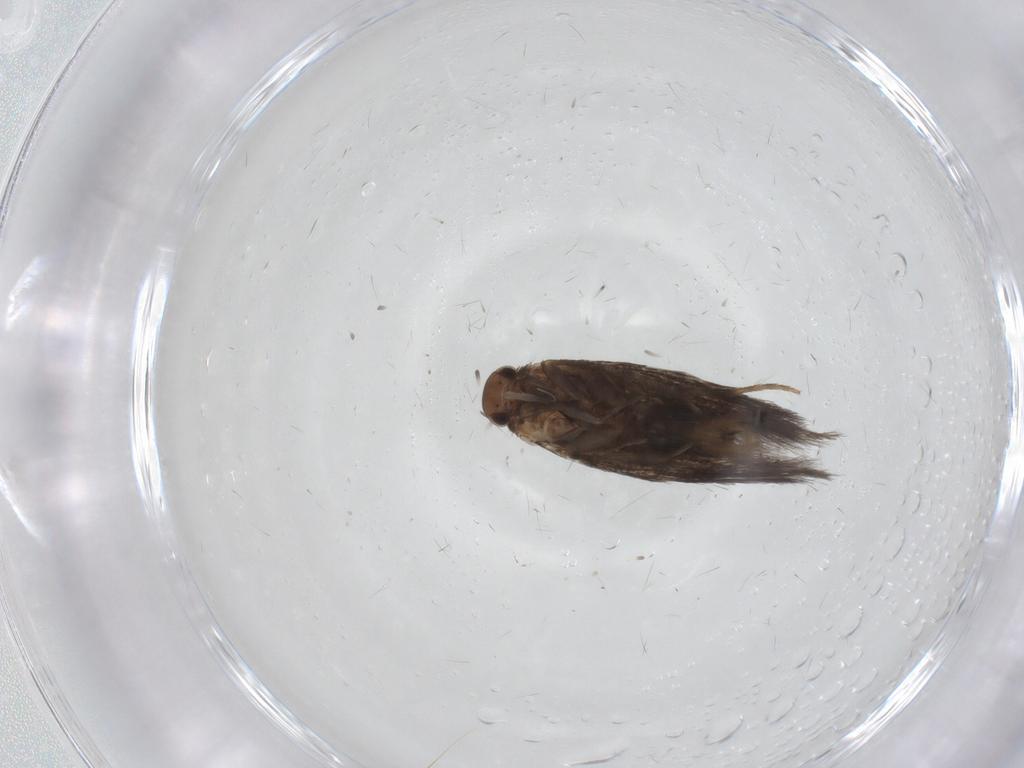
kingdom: Animalia
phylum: Arthropoda
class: Insecta
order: Lepidoptera
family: Elachistidae
